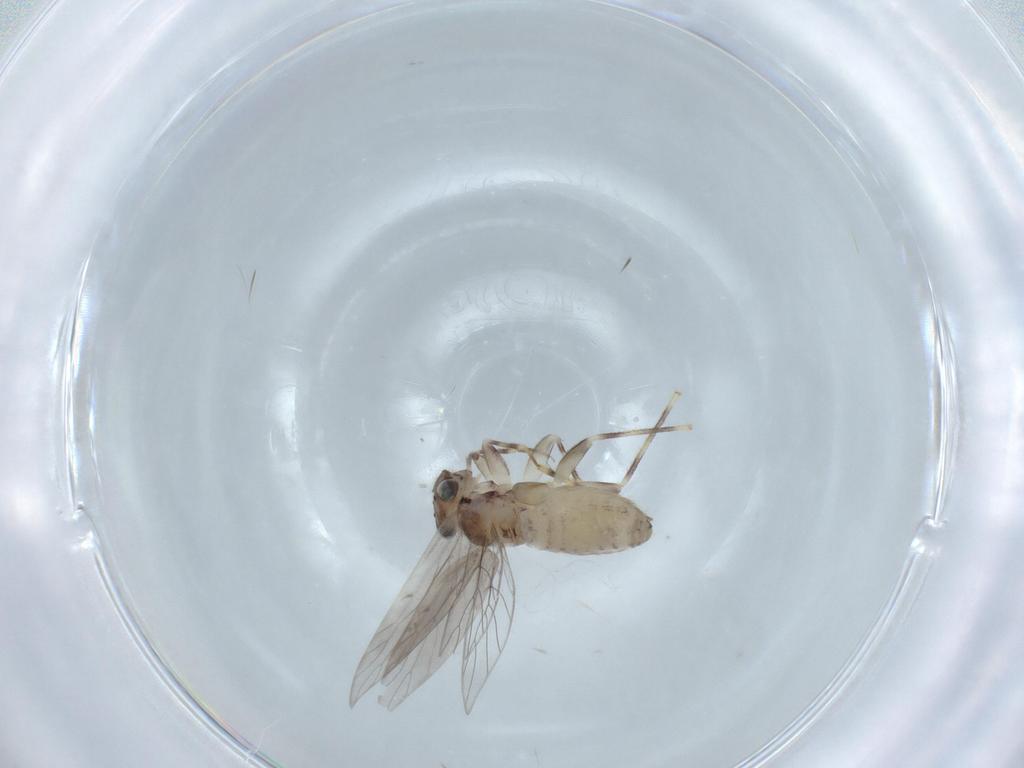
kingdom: Animalia
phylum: Arthropoda
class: Insecta
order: Psocodea
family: Lepidopsocidae
